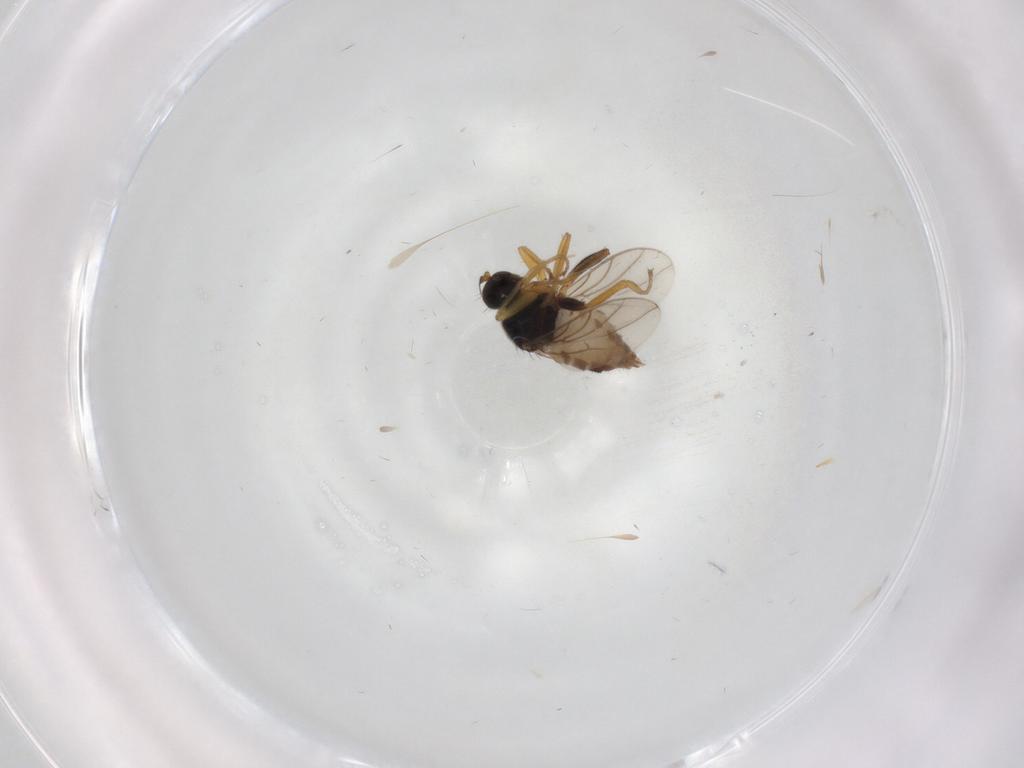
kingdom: Animalia
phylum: Arthropoda
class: Insecta
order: Diptera
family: Hybotidae
